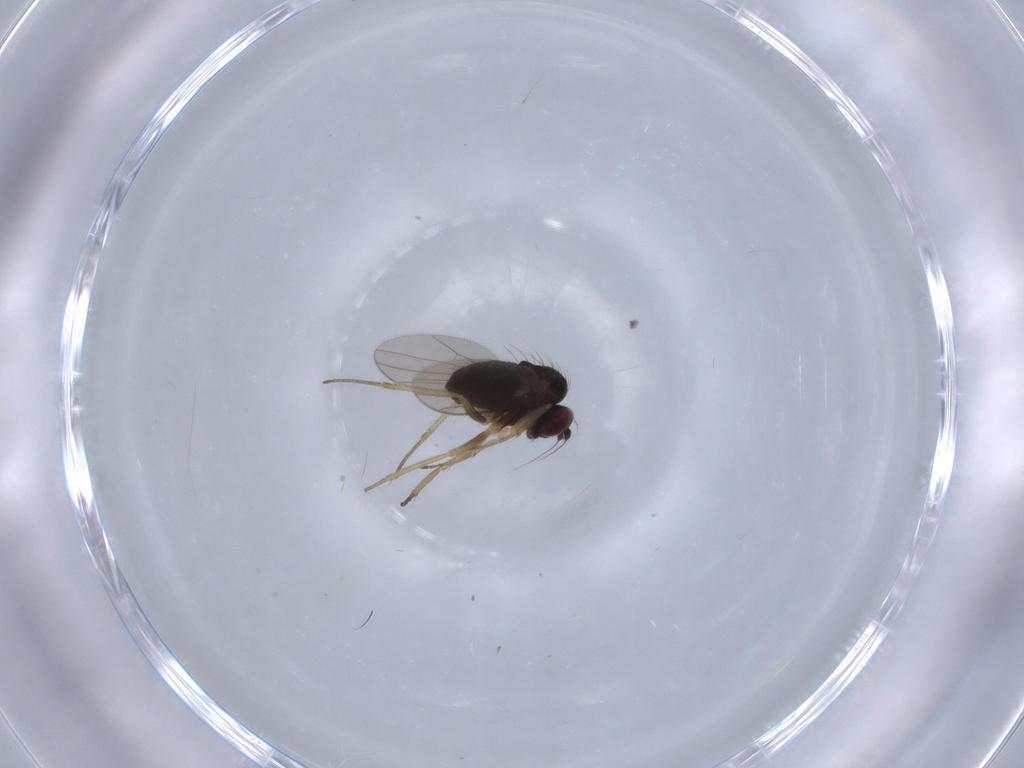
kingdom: Animalia
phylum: Arthropoda
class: Insecta
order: Diptera
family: Dolichopodidae
